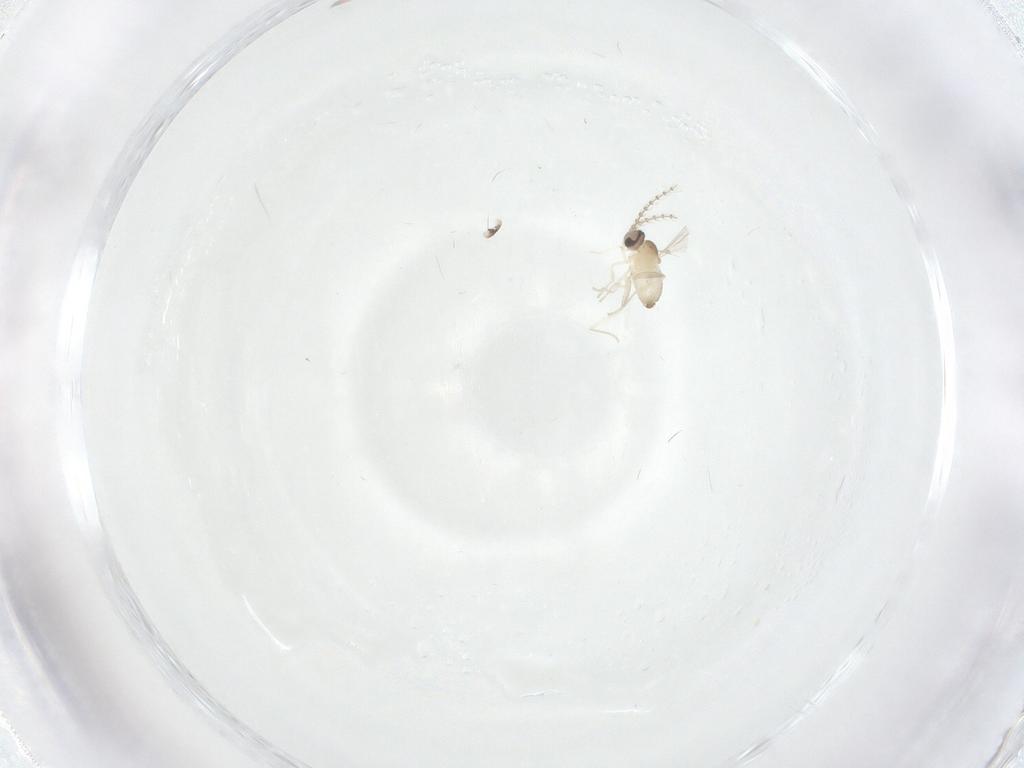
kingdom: Animalia
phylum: Arthropoda
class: Insecta
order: Diptera
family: Cecidomyiidae
